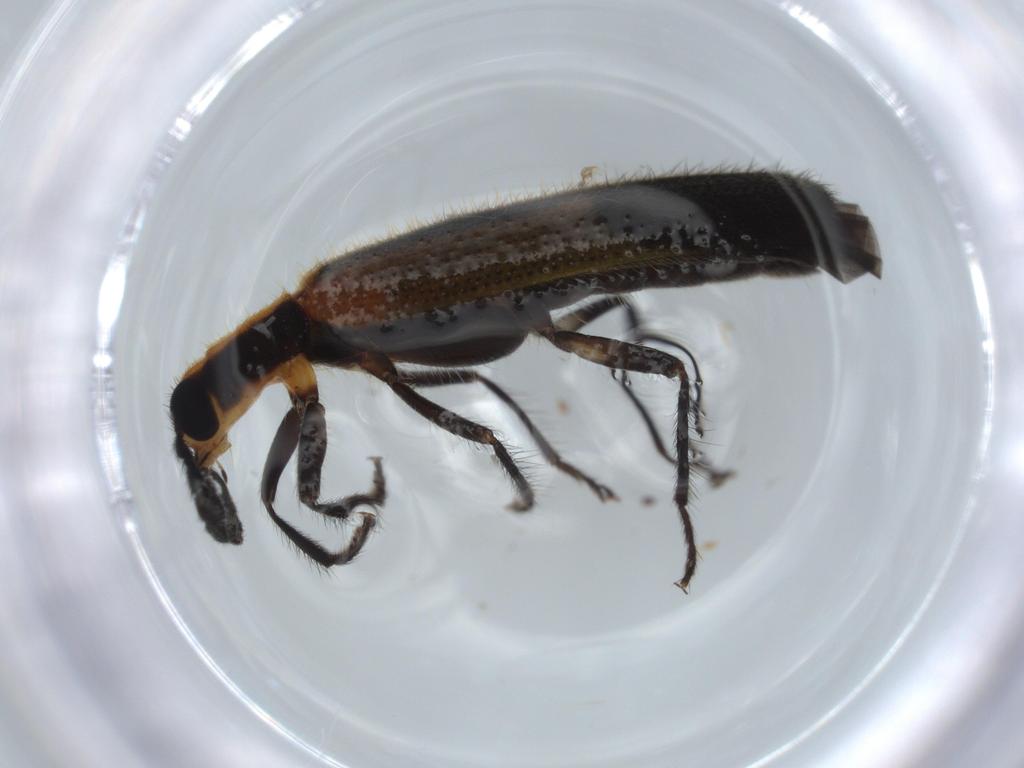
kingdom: Animalia
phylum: Arthropoda
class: Insecta
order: Coleoptera
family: Cleridae
